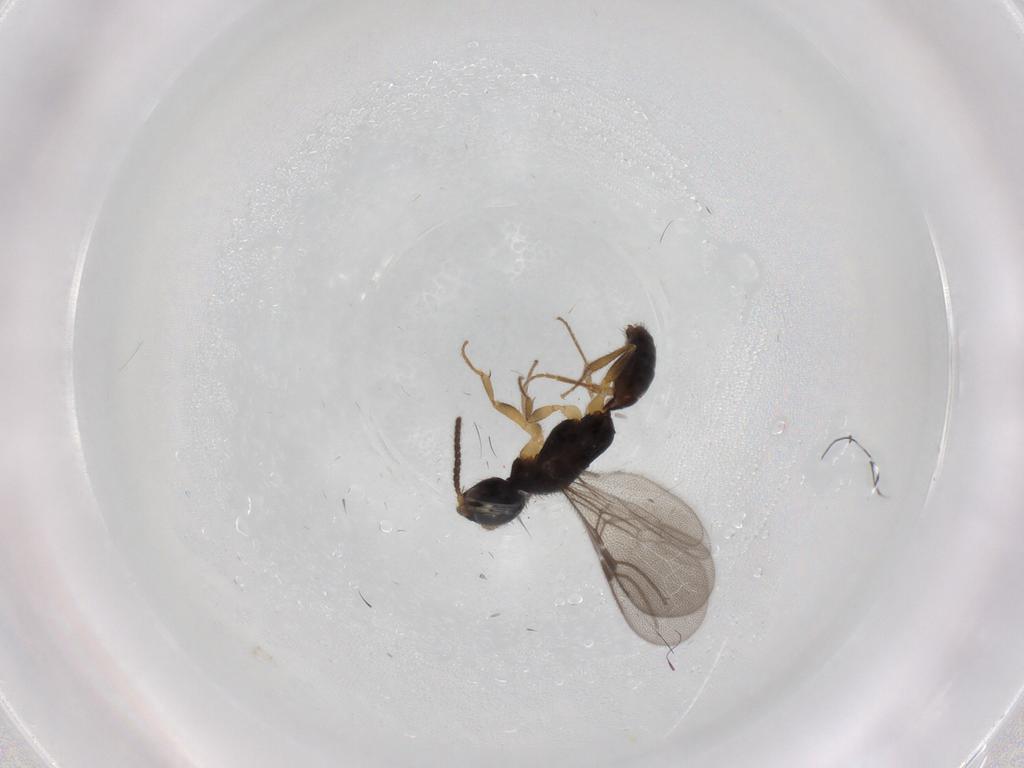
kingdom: Animalia
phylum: Arthropoda
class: Insecta
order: Hymenoptera
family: Bethylidae
